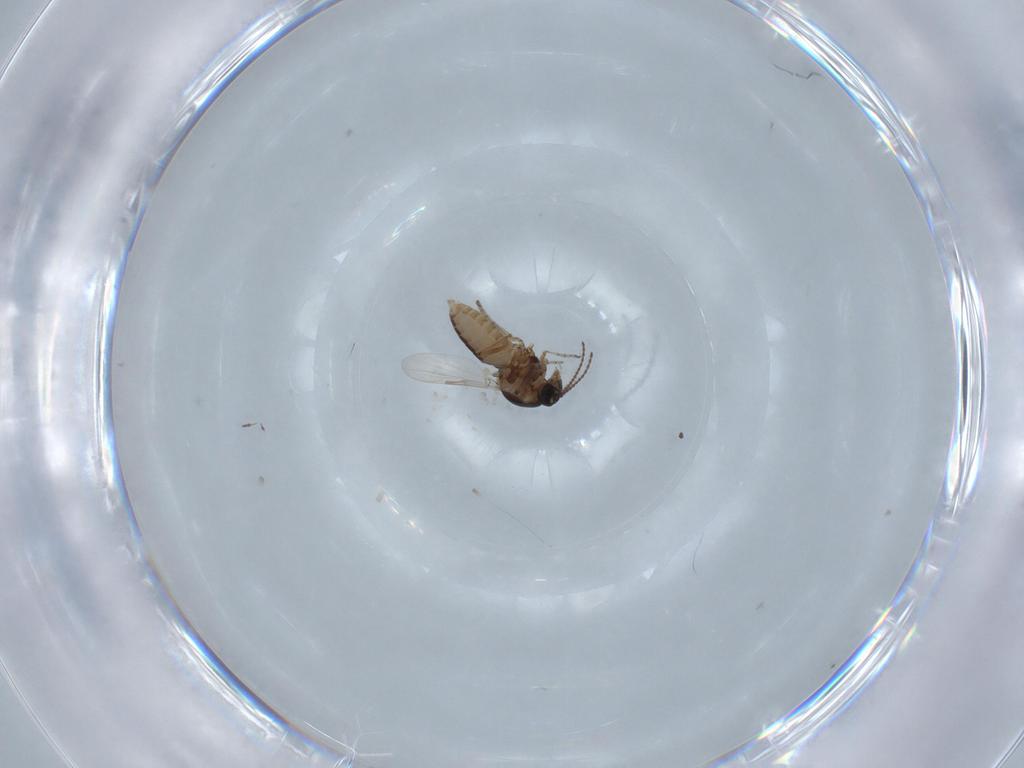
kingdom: Animalia
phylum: Arthropoda
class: Insecta
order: Diptera
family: Ceratopogonidae
